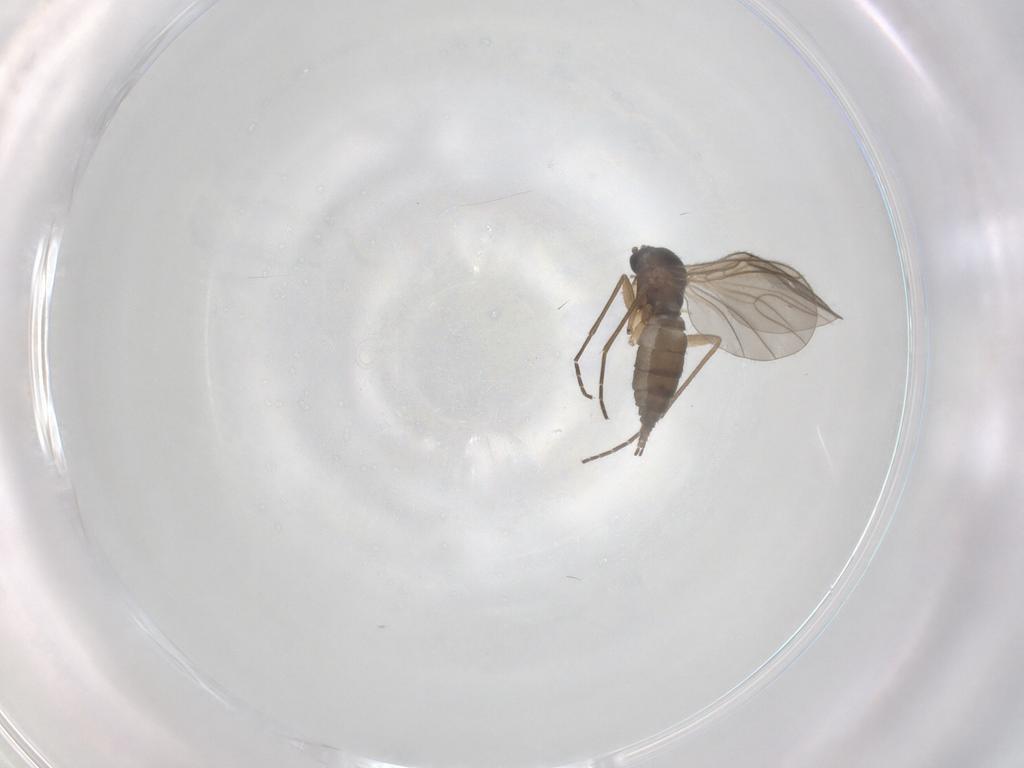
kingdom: Animalia
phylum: Arthropoda
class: Insecta
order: Diptera
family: Sciaridae
